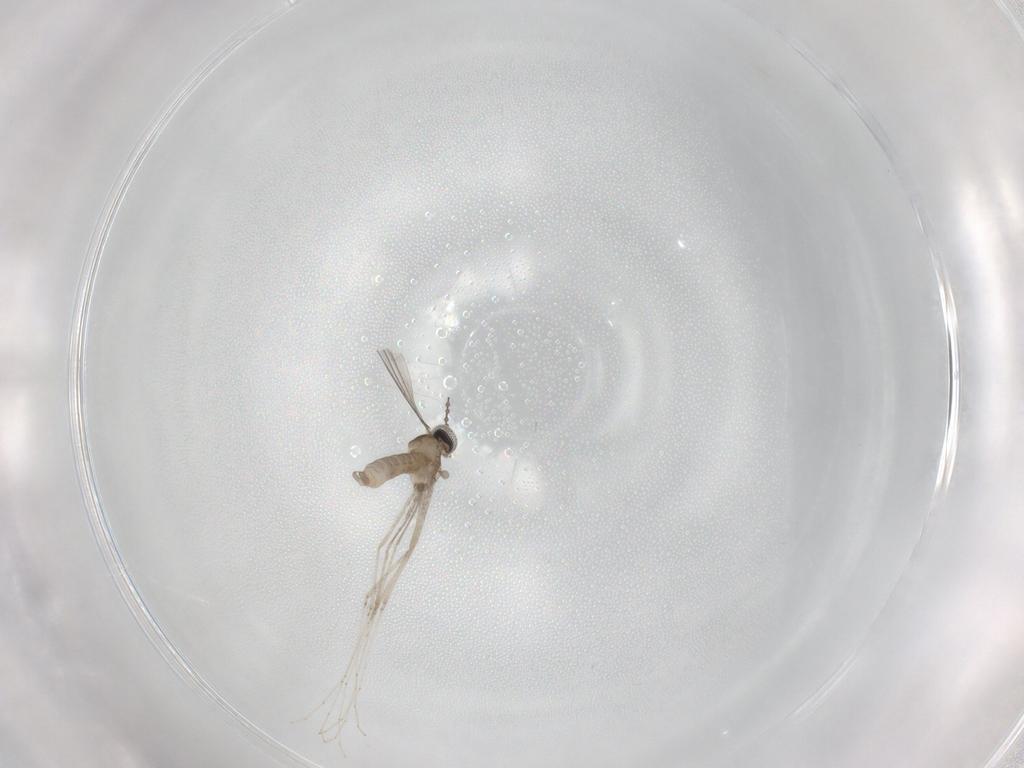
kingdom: Animalia
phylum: Arthropoda
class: Insecta
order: Diptera
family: Cecidomyiidae
